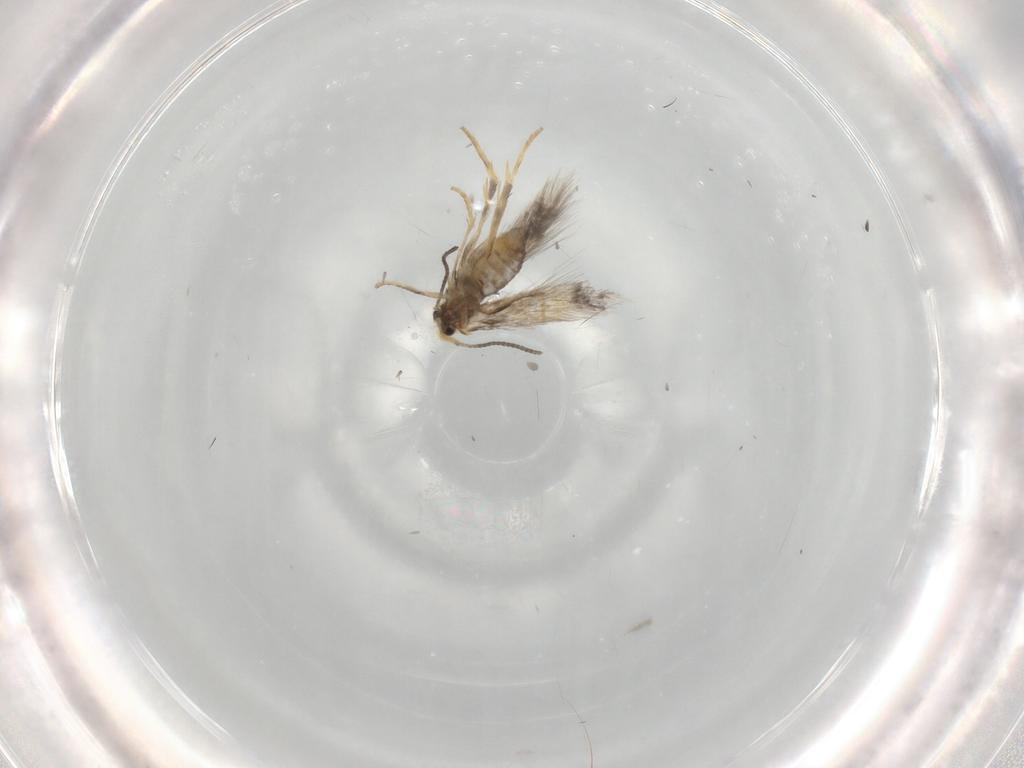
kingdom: Animalia
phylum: Arthropoda
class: Insecta
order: Lepidoptera
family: Nepticulidae
